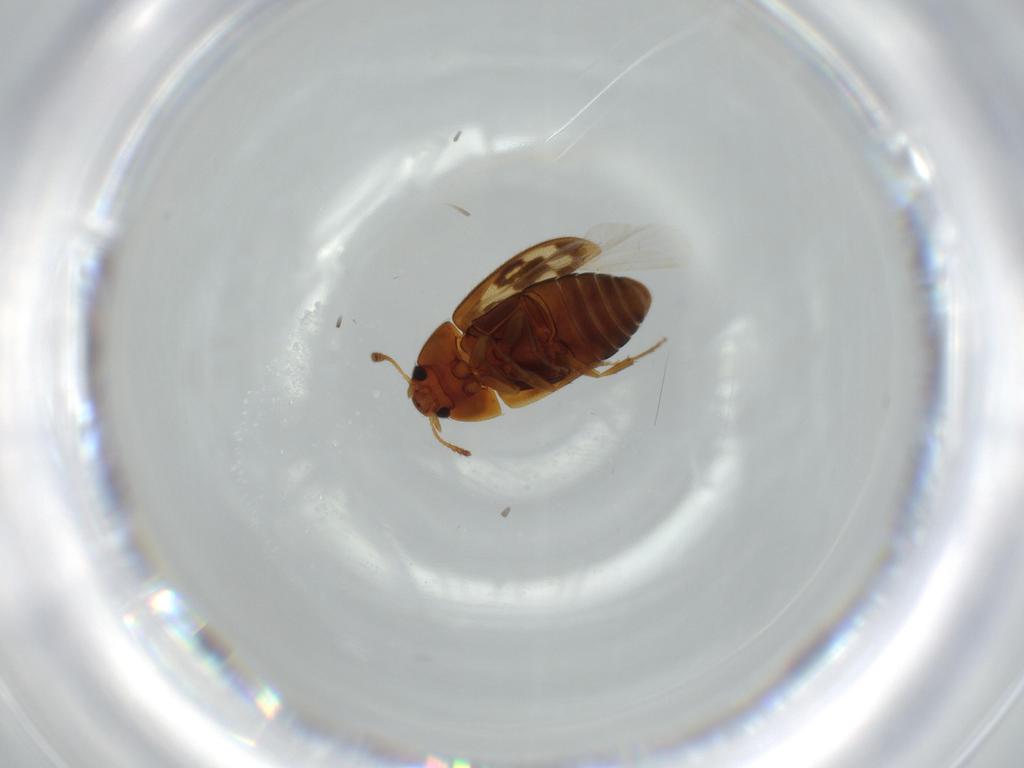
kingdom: Animalia
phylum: Arthropoda
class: Insecta
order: Coleoptera
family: Mycetophagidae
